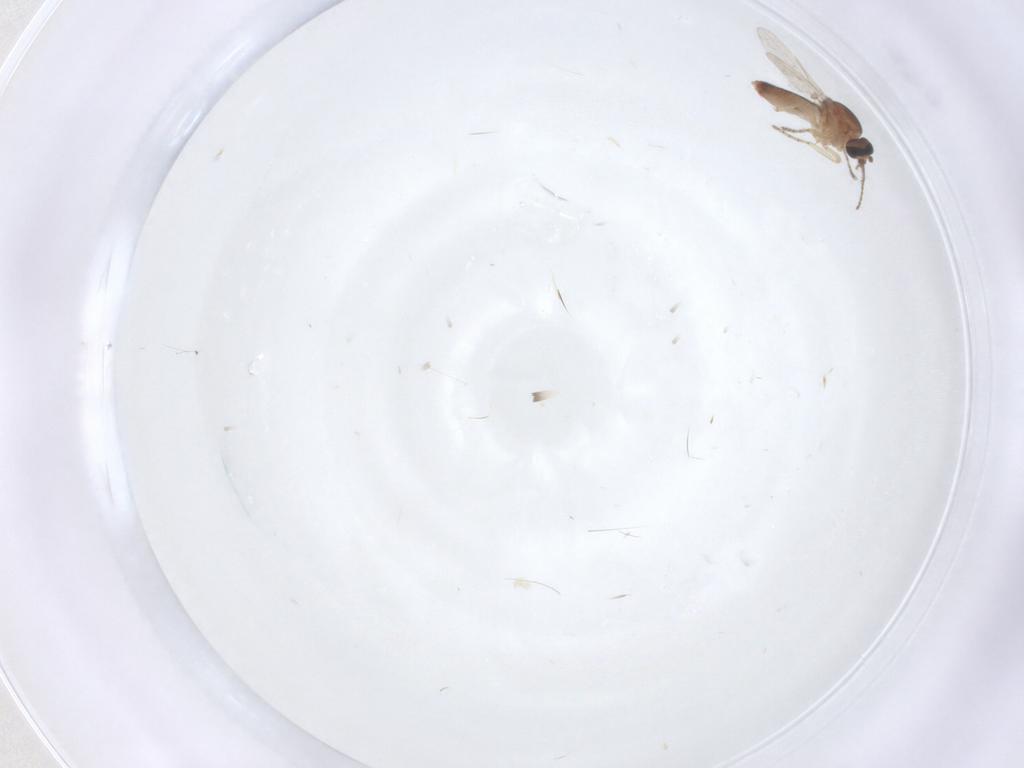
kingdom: Animalia
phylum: Arthropoda
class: Insecta
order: Diptera
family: Ceratopogonidae
